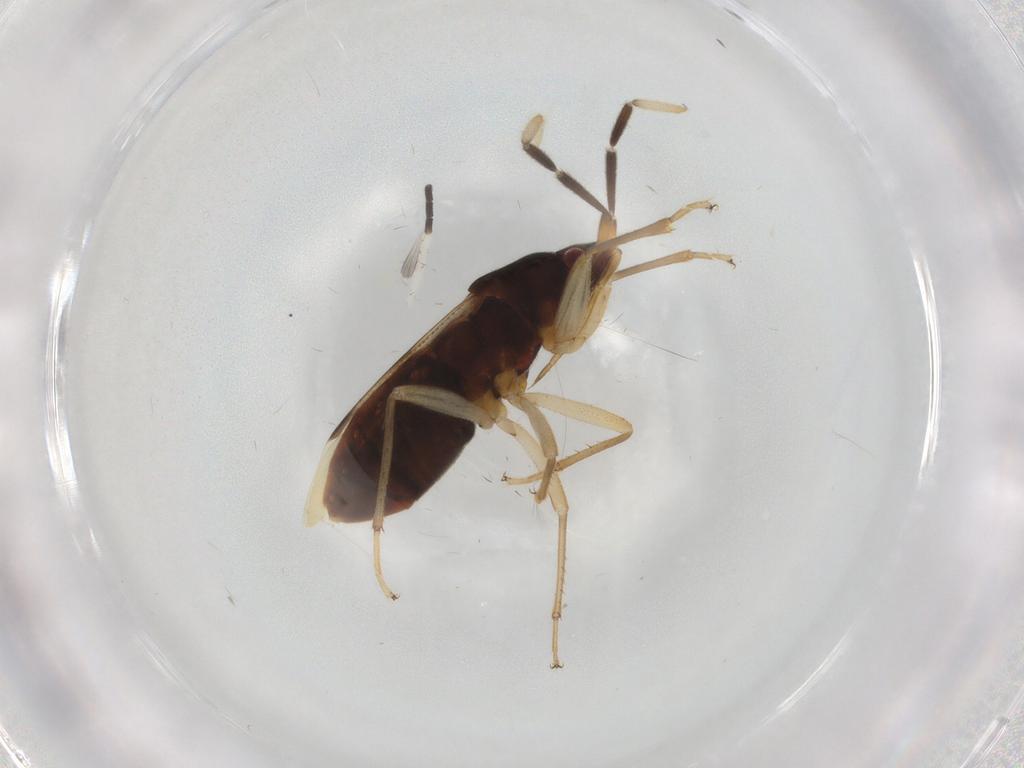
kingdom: Animalia
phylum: Arthropoda
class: Insecta
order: Hemiptera
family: Rhyparochromidae
